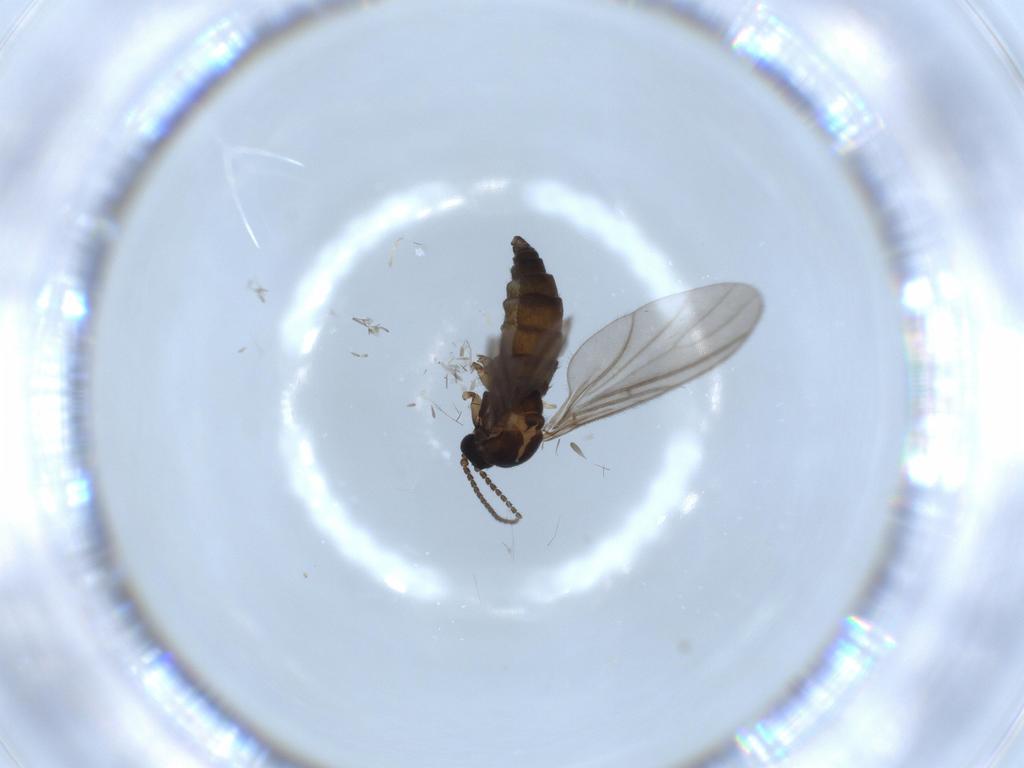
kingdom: Animalia
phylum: Arthropoda
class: Insecta
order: Diptera
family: Sciaridae
